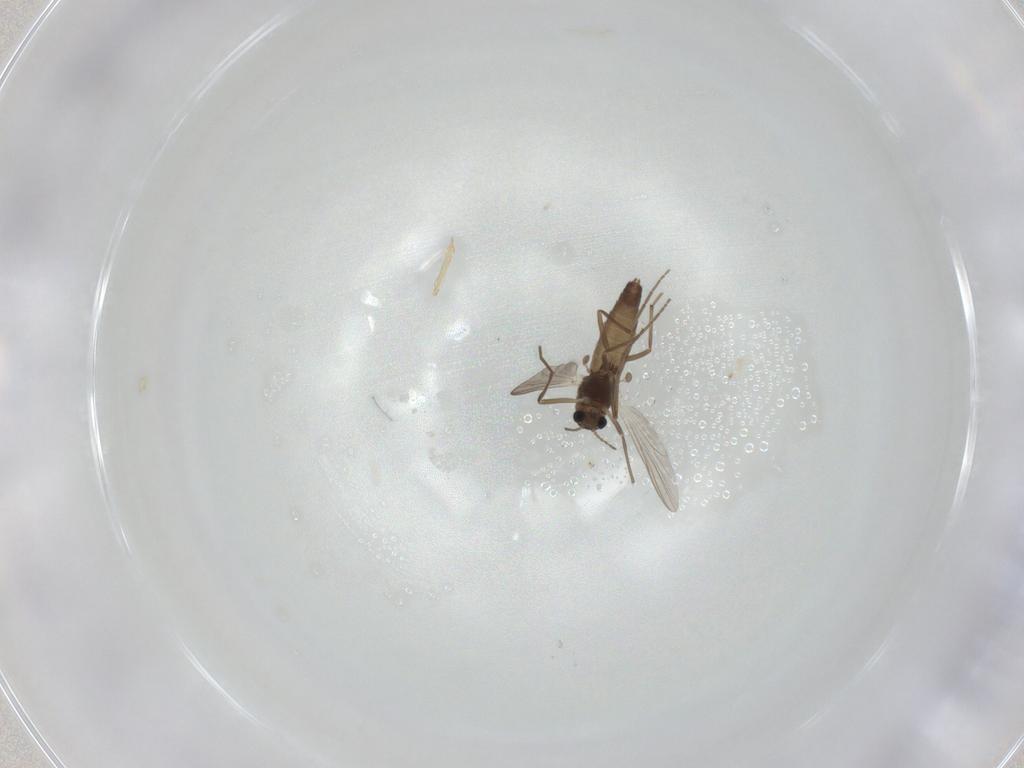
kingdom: Animalia
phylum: Arthropoda
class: Insecta
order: Diptera
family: Chironomidae
